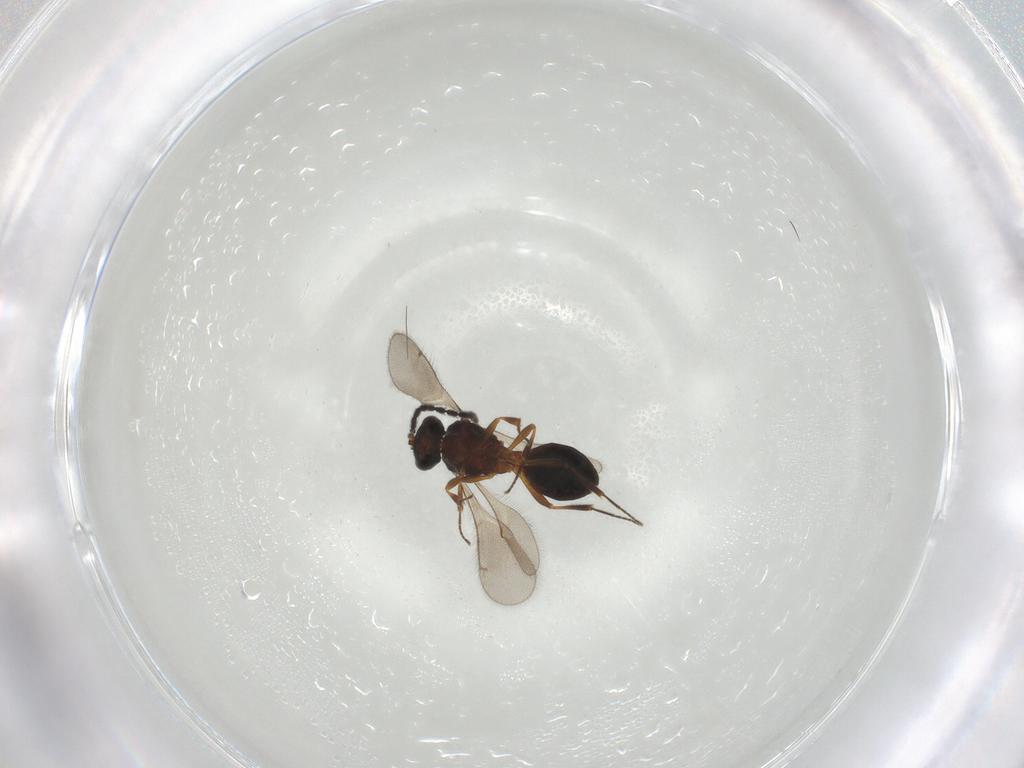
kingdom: Animalia
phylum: Arthropoda
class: Insecta
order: Hymenoptera
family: Scelionidae
